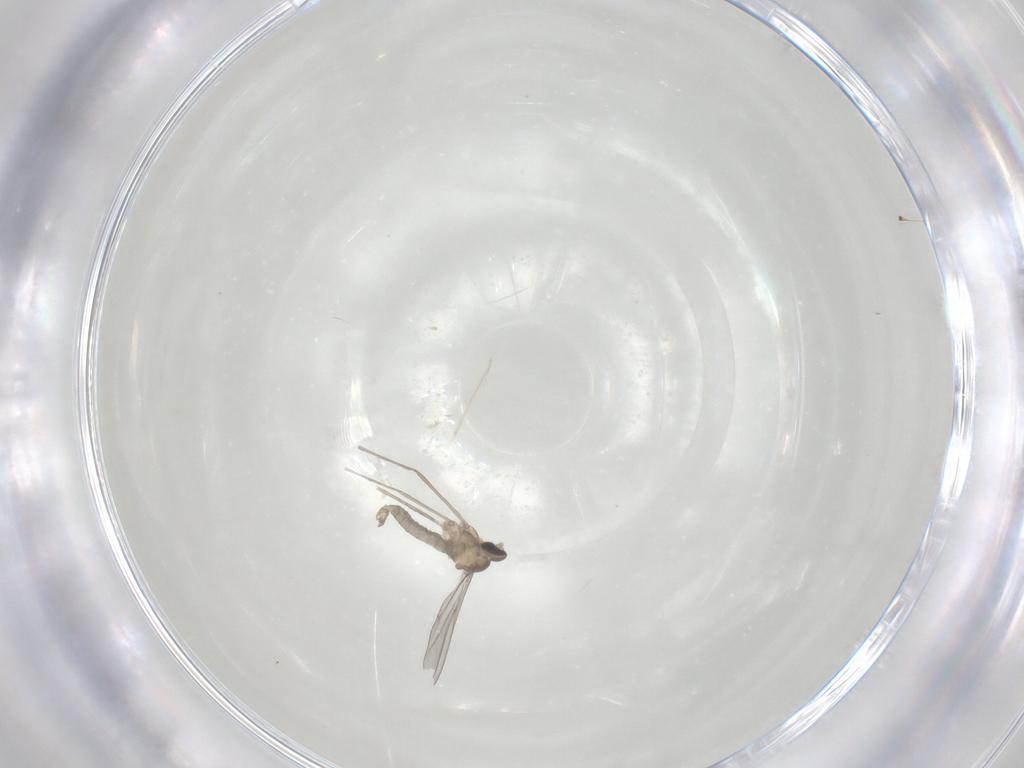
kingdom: Animalia
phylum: Arthropoda
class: Insecta
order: Diptera
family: Cecidomyiidae
